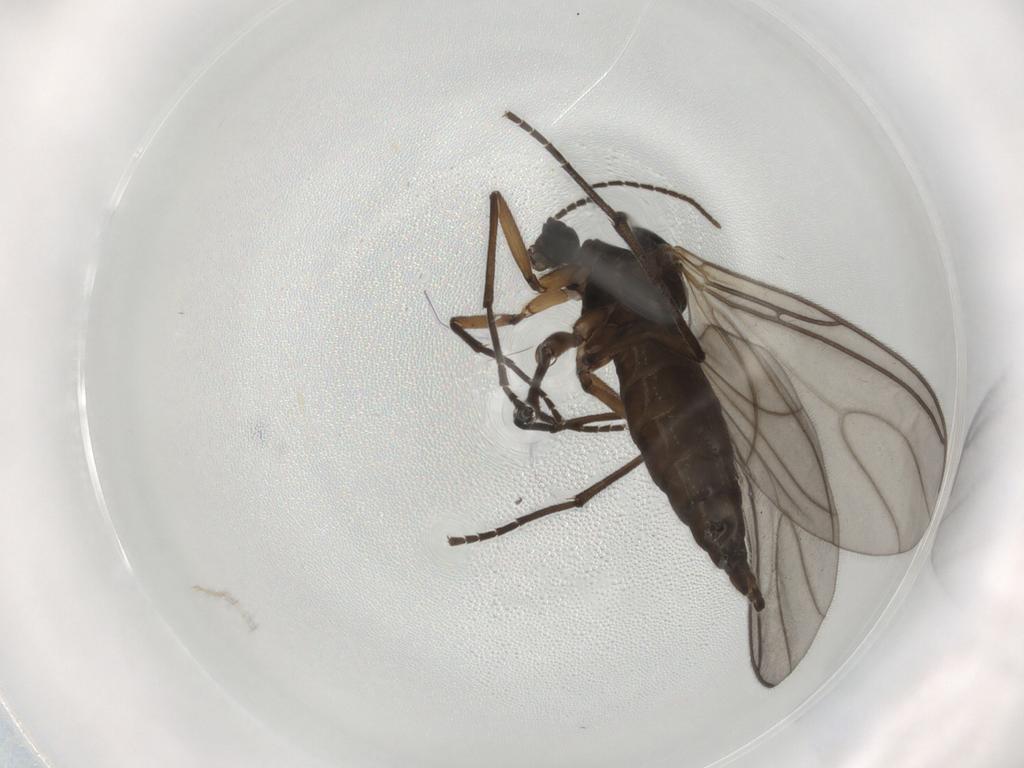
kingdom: Animalia
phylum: Arthropoda
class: Insecta
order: Diptera
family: Sciaridae
